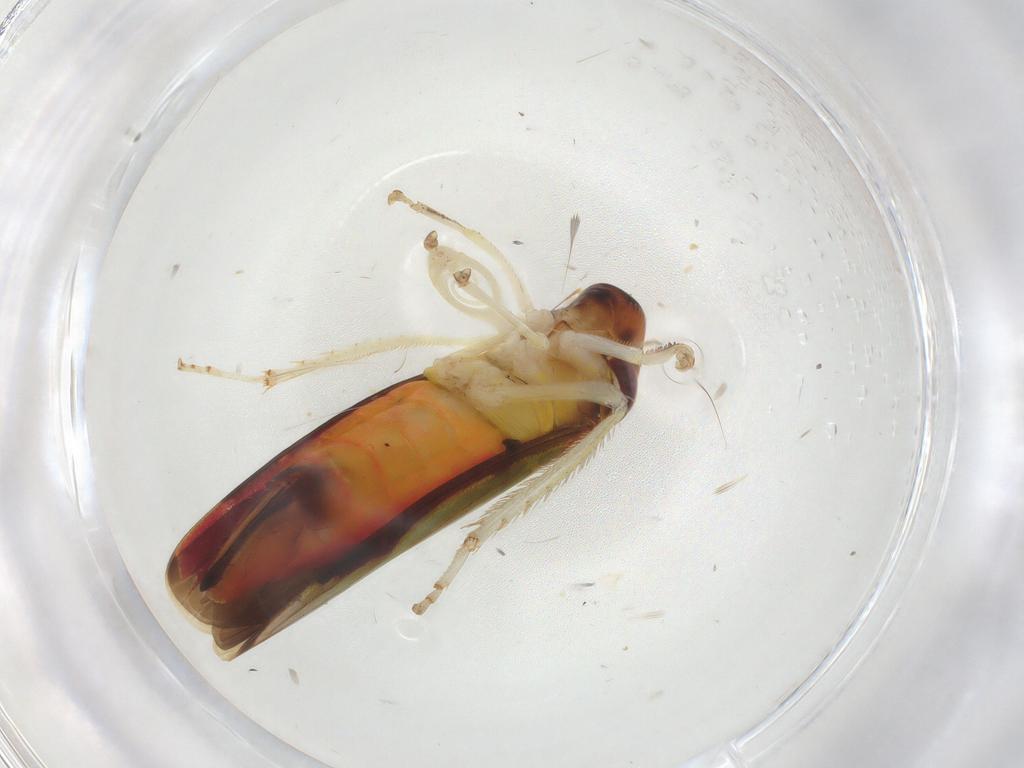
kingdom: Animalia
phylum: Arthropoda
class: Insecta
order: Hemiptera
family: Cicadellidae
